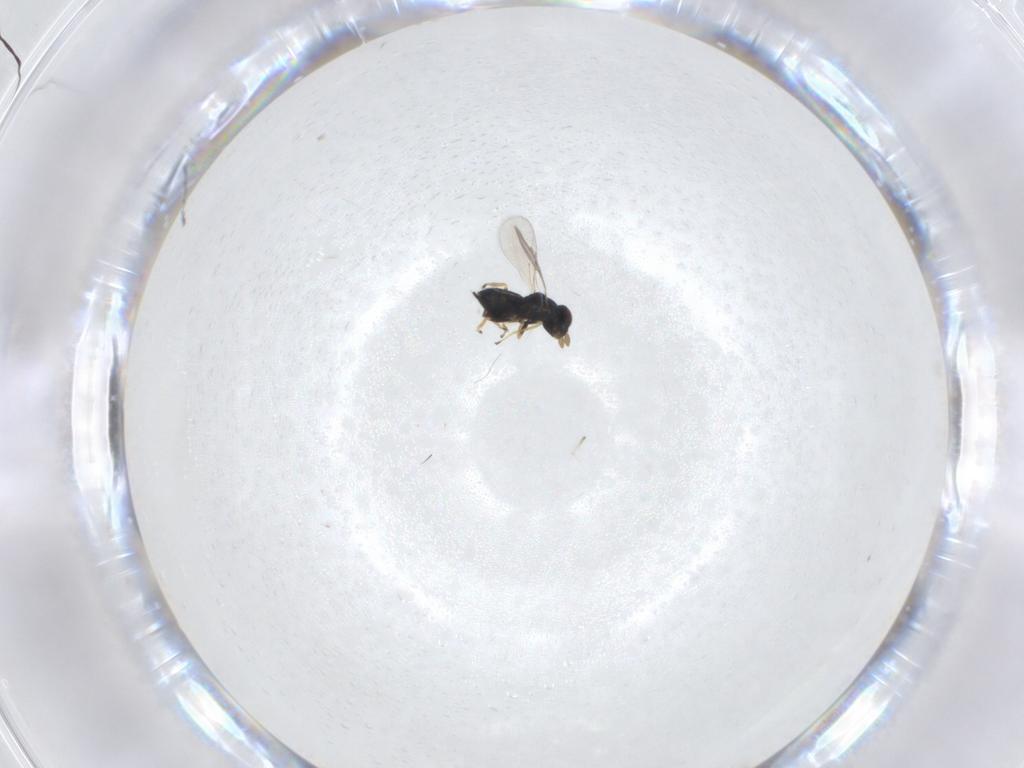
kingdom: Animalia
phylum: Arthropoda
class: Insecta
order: Hymenoptera
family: Eulophidae
